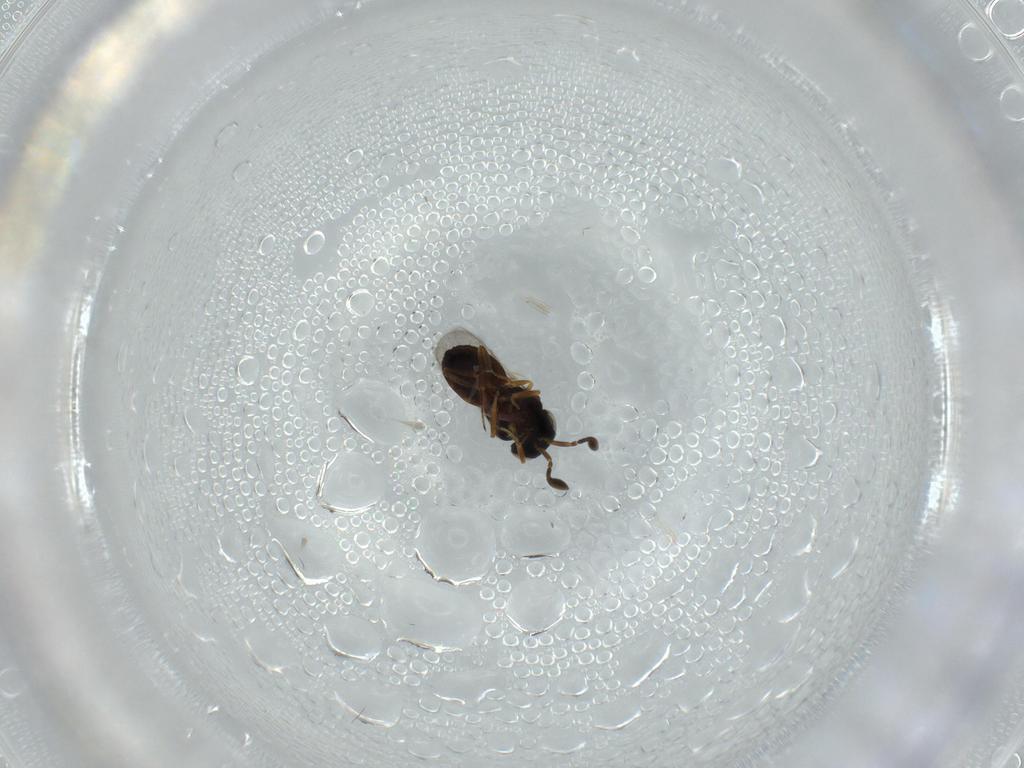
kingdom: Animalia
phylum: Arthropoda
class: Insecta
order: Hymenoptera
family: Scelionidae
